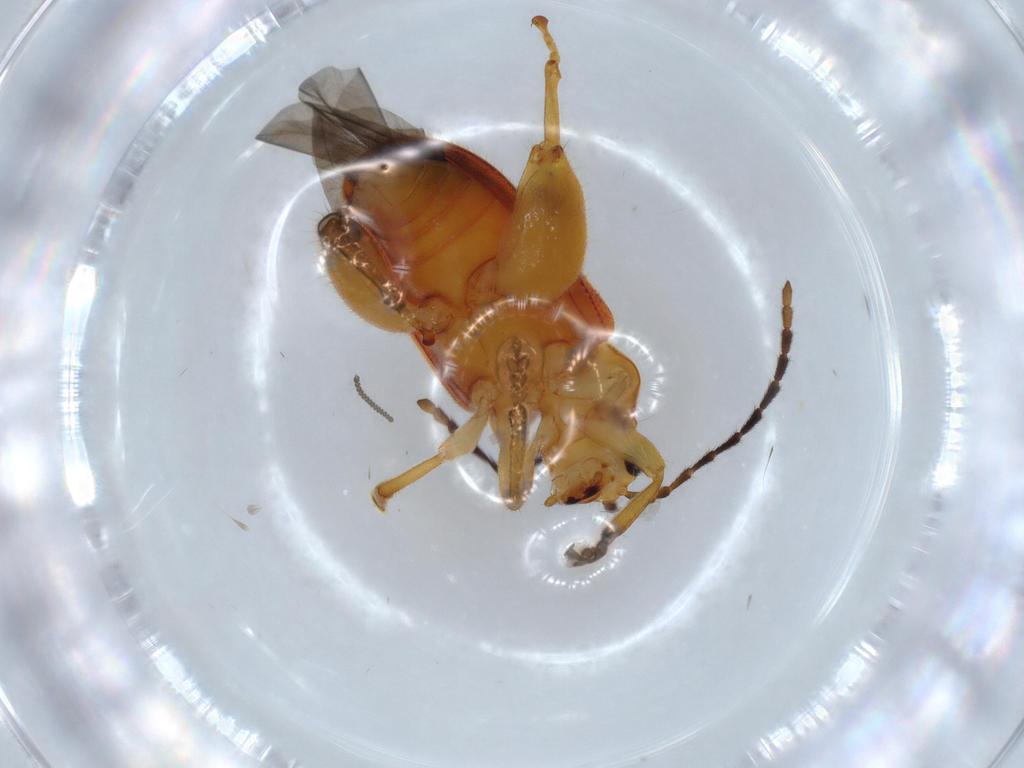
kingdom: Animalia
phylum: Arthropoda
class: Insecta
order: Coleoptera
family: Chrysomelidae
